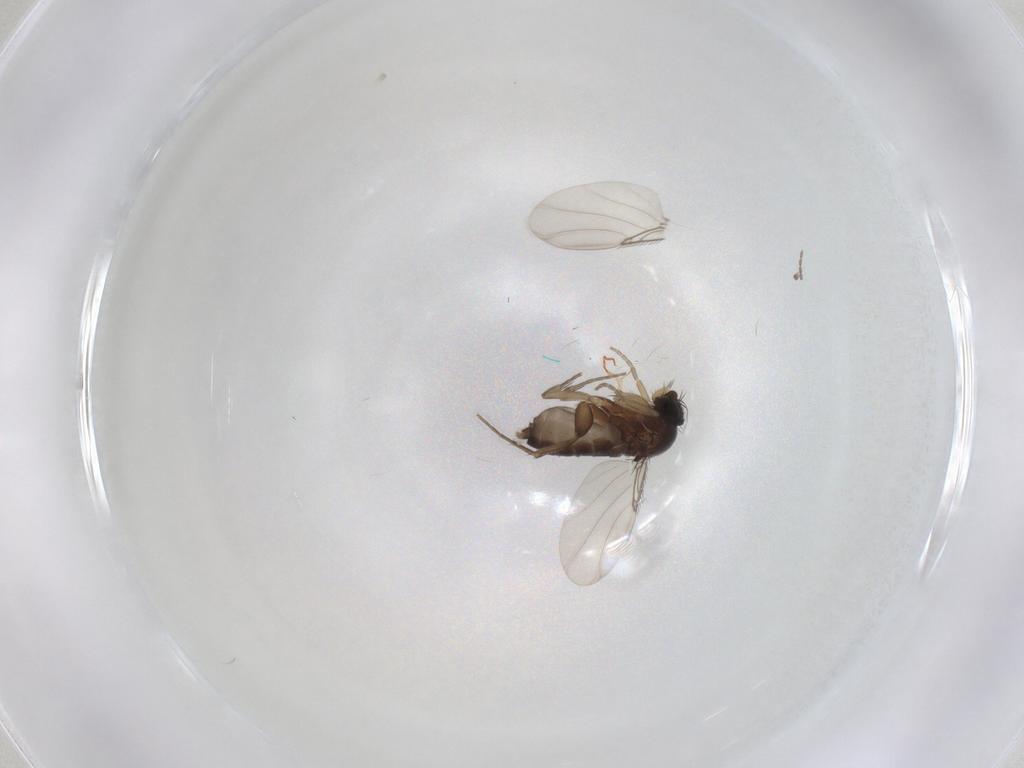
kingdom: Animalia
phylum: Arthropoda
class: Insecta
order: Diptera
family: Cecidomyiidae
